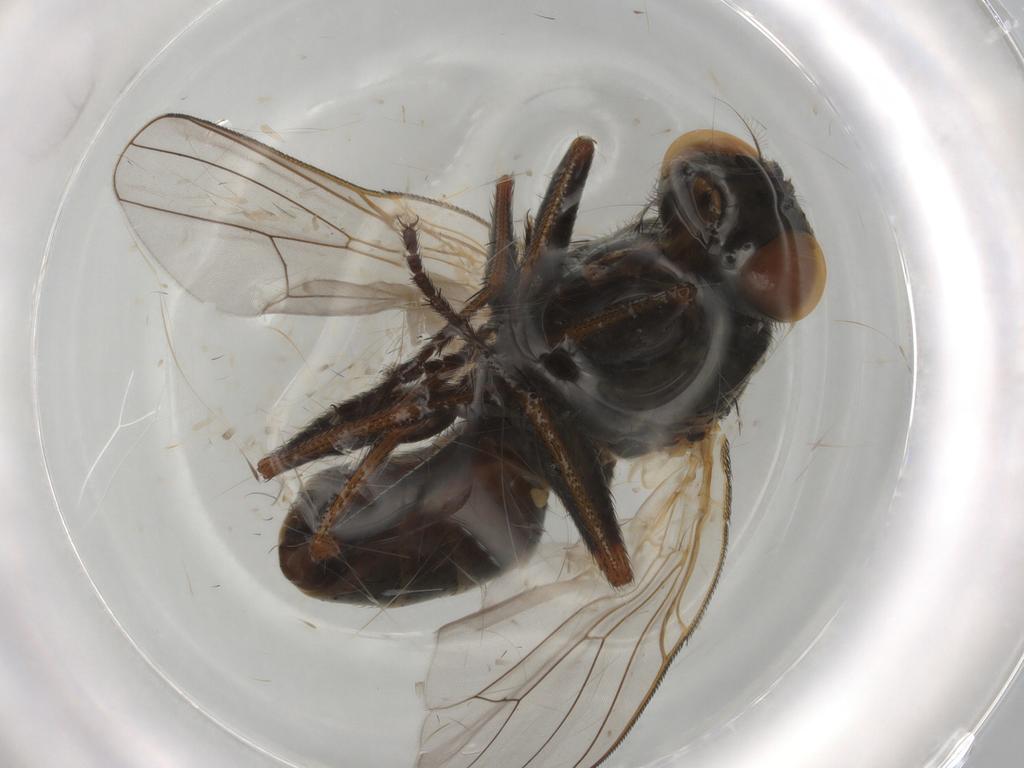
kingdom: Animalia
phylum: Arthropoda
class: Insecta
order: Diptera
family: Muscidae
